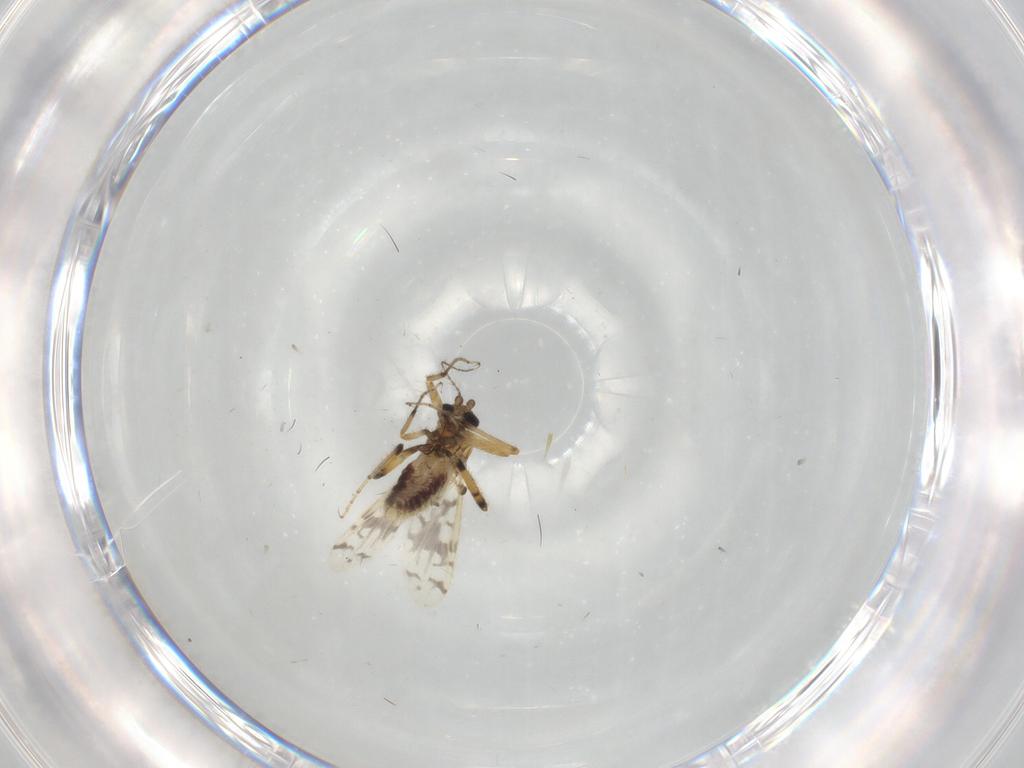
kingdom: Animalia
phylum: Arthropoda
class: Insecta
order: Diptera
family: Ceratopogonidae
